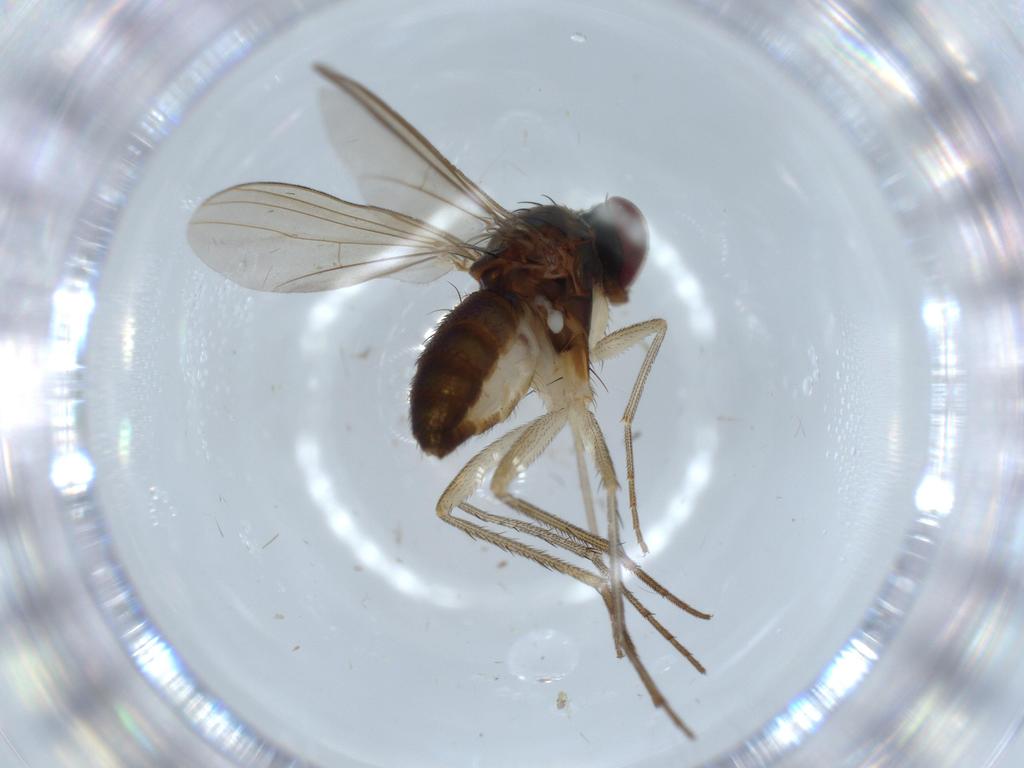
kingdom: Animalia
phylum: Arthropoda
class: Insecta
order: Diptera
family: Dolichopodidae
